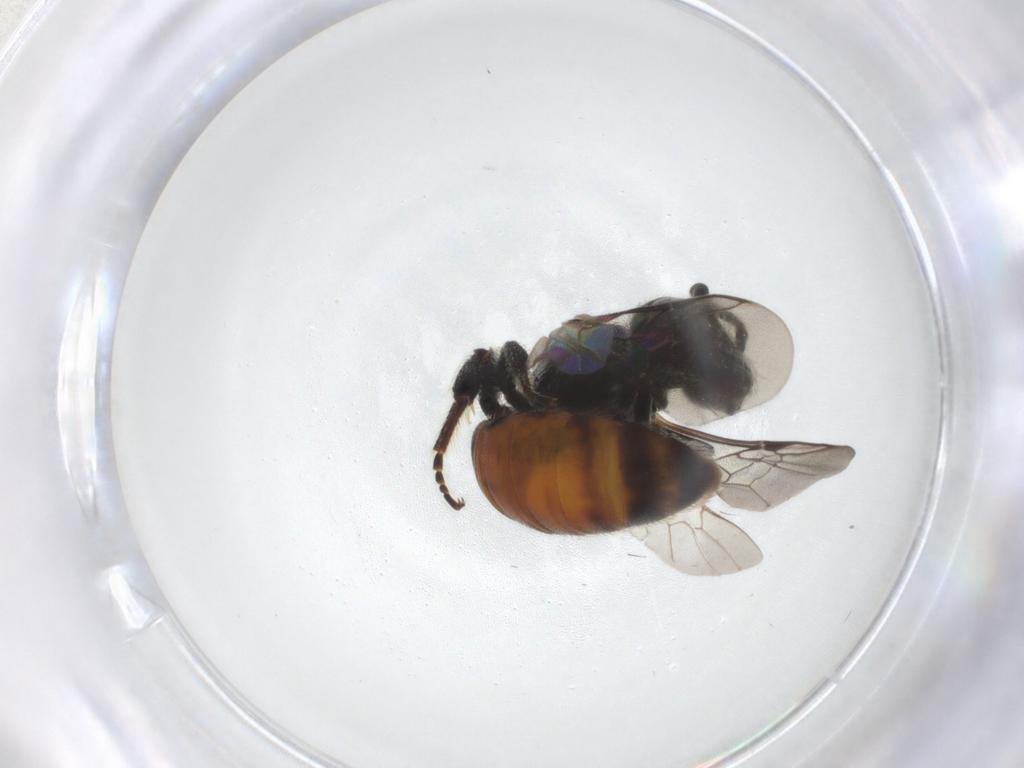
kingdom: Animalia
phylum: Arthropoda
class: Insecta
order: Hymenoptera
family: Halictidae
